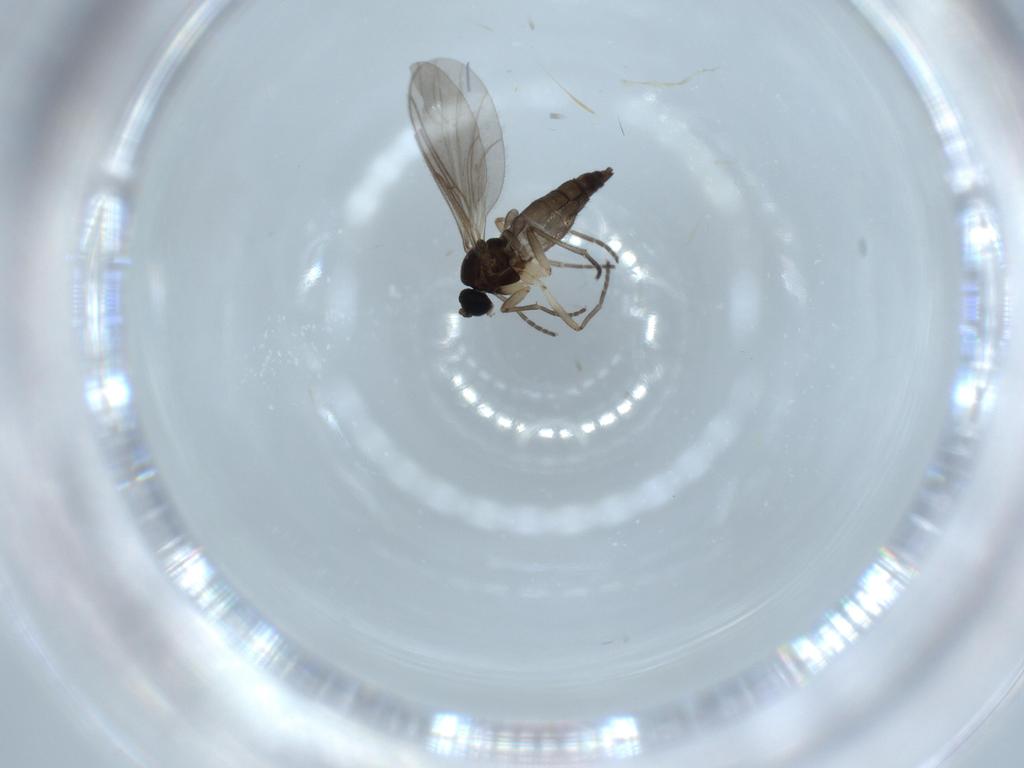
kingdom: Animalia
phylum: Arthropoda
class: Insecta
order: Diptera
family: Sciaridae
